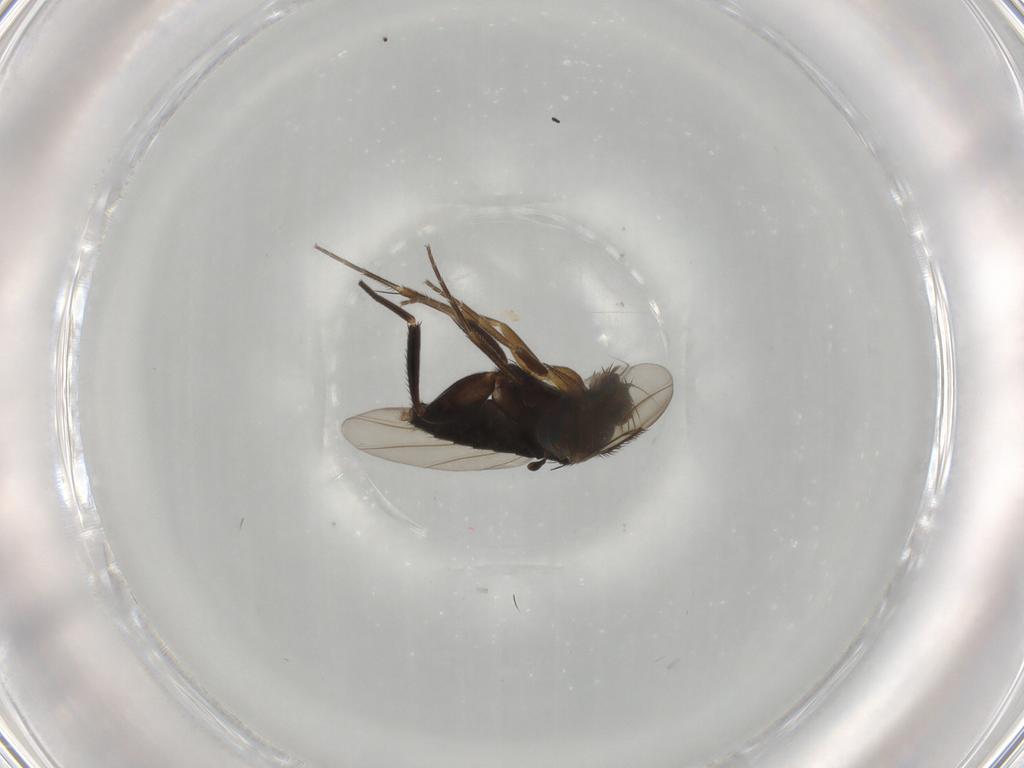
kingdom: Animalia
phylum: Arthropoda
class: Insecta
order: Diptera
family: Phoridae
